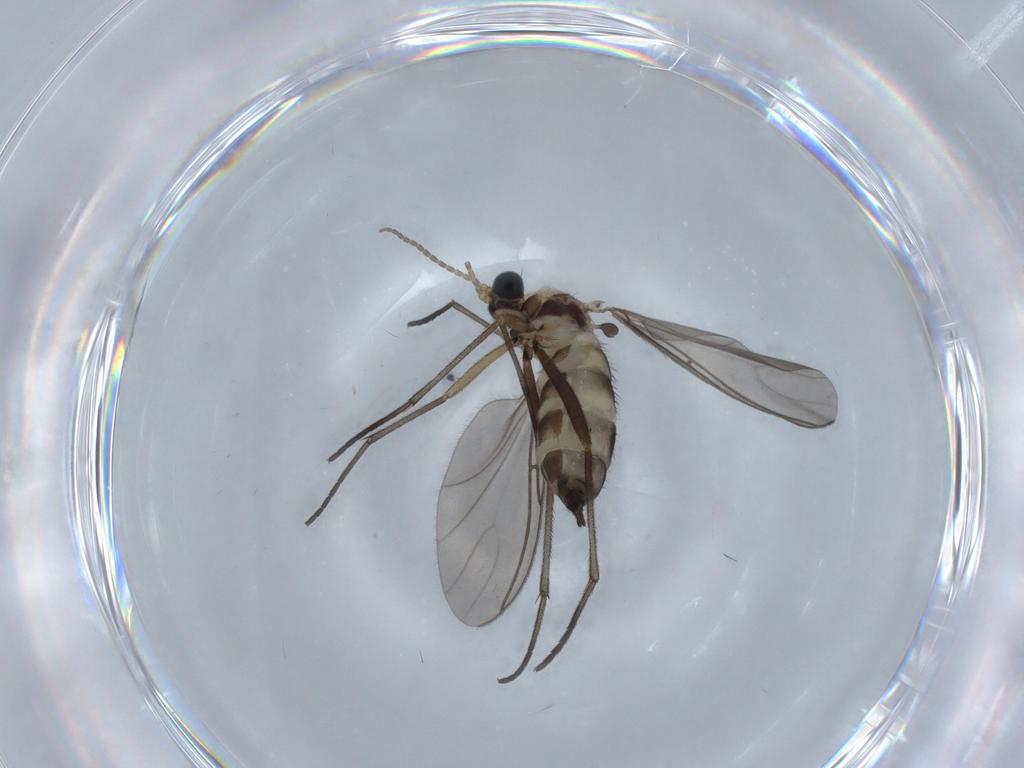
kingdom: Animalia
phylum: Arthropoda
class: Insecta
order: Diptera
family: Sciaridae
